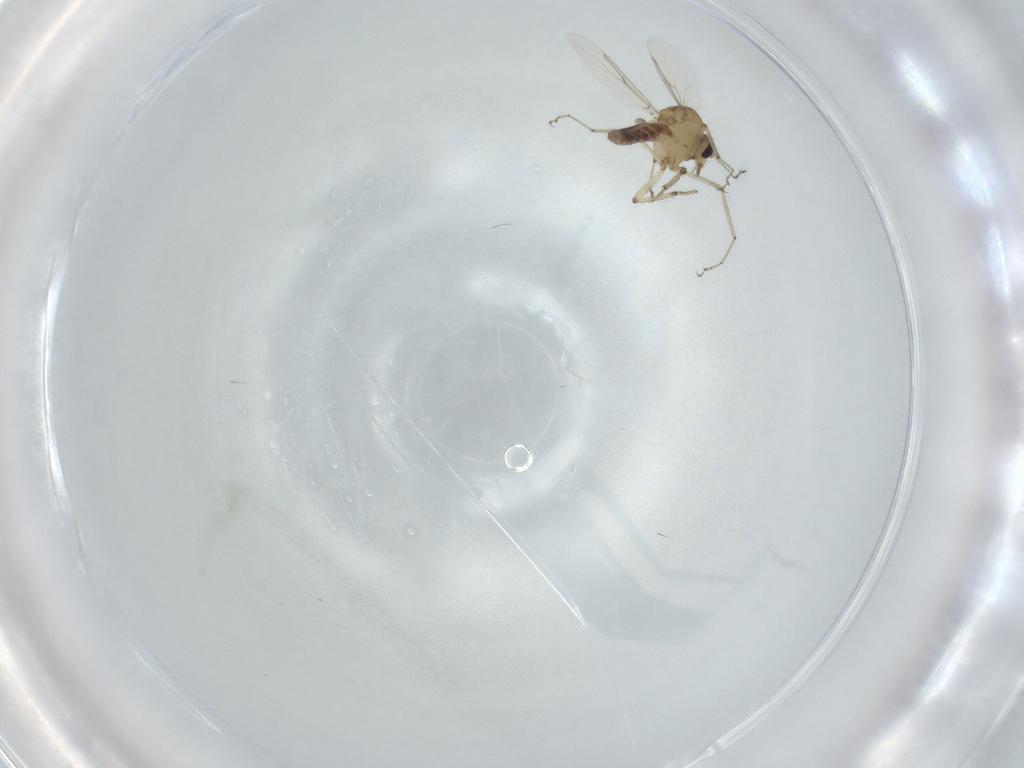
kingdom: Animalia
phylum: Arthropoda
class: Insecta
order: Diptera
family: Ceratopogonidae
